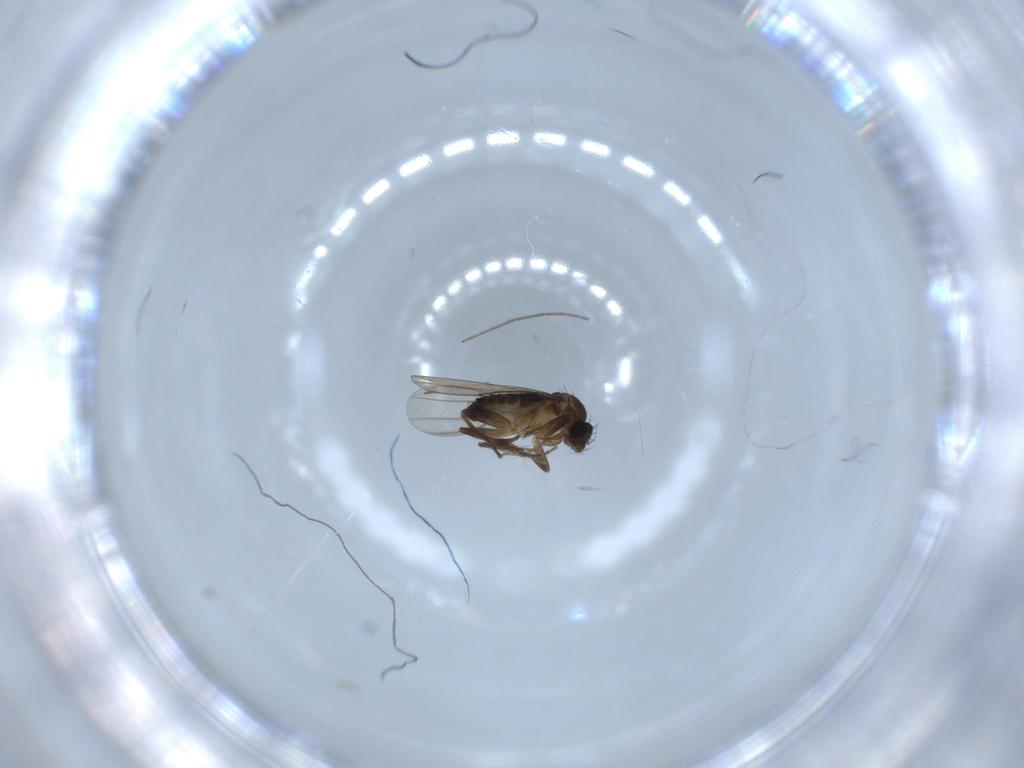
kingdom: Animalia
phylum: Arthropoda
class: Insecta
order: Diptera
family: Phoridae
